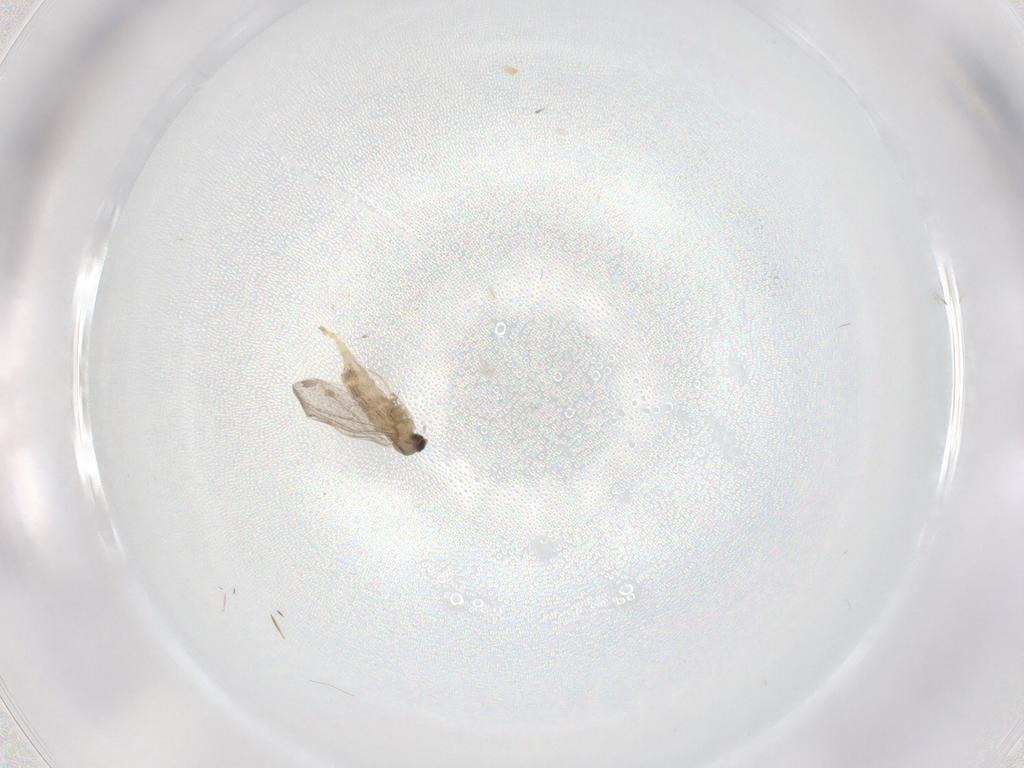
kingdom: Animalia
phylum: Arthropoda
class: Insecta
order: Diptera
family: Cecidomyiidae
